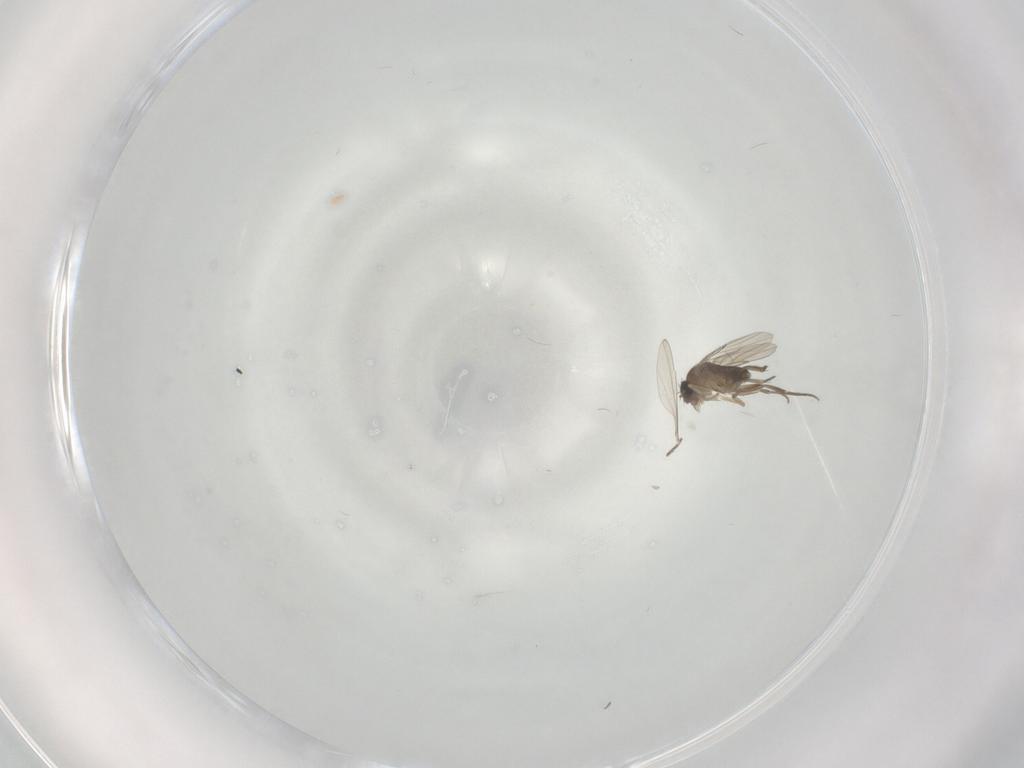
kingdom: Animalia
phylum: Arthropoda
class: Insecta
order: Diptera
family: Phoridae
